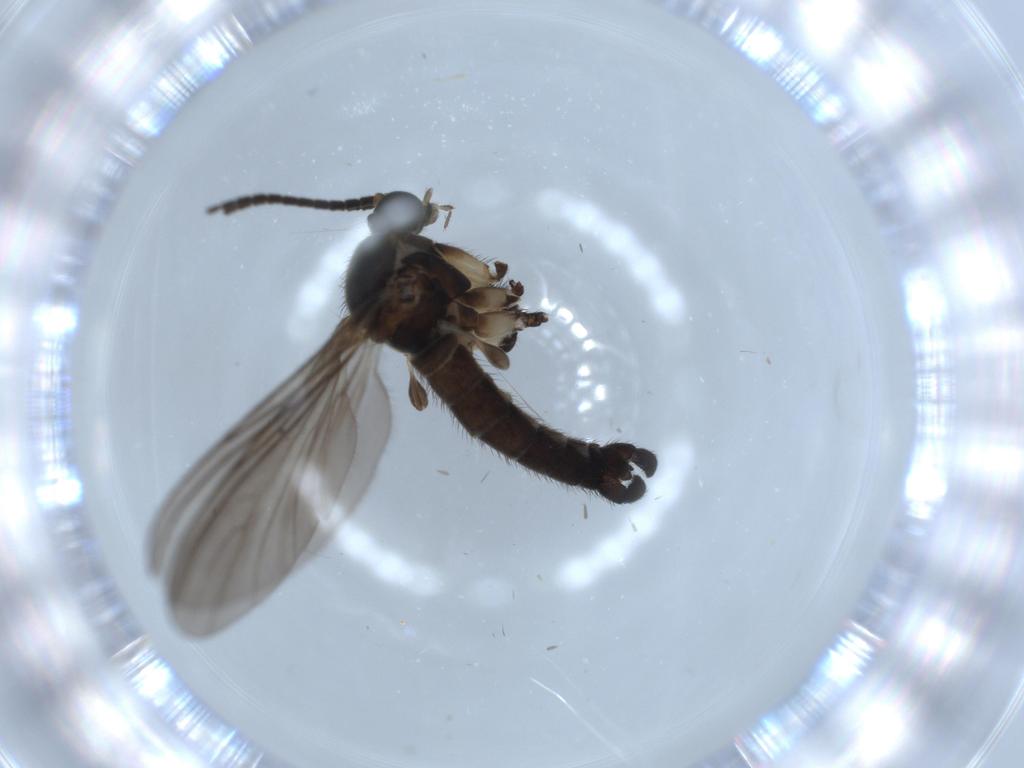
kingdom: Animalia
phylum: Arthropoda
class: Insecta
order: Diptera
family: Sciaridae
